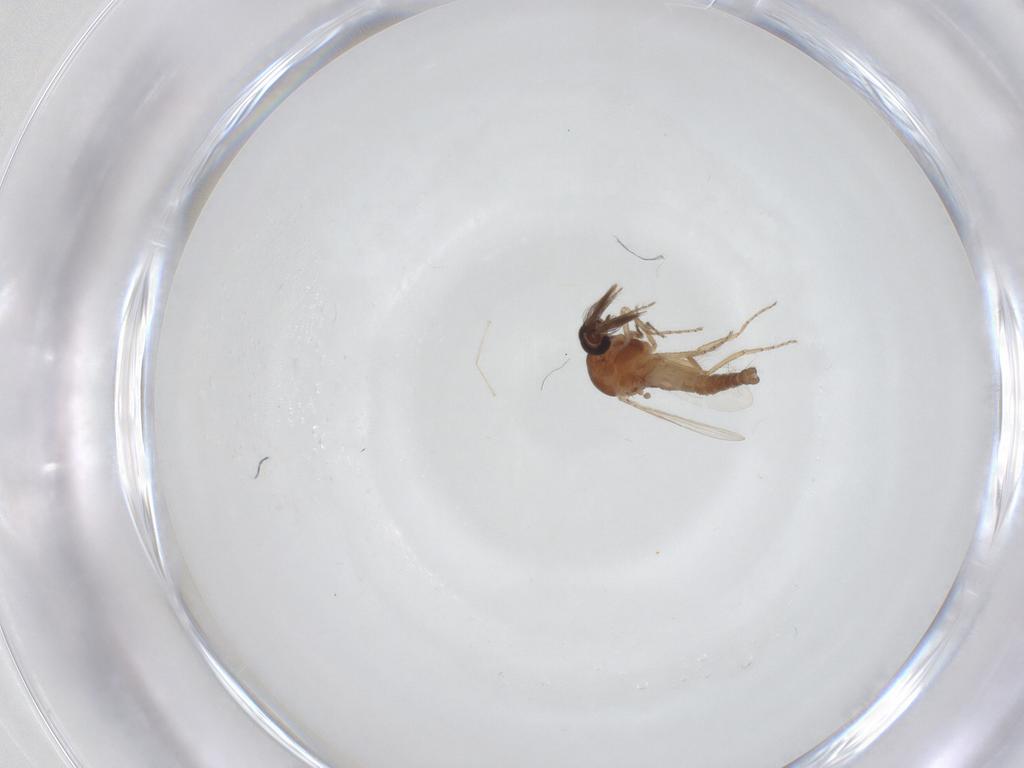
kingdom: Animalia
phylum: Arthropoda
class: Insecta
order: Diptera
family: Ceratopogonidae
